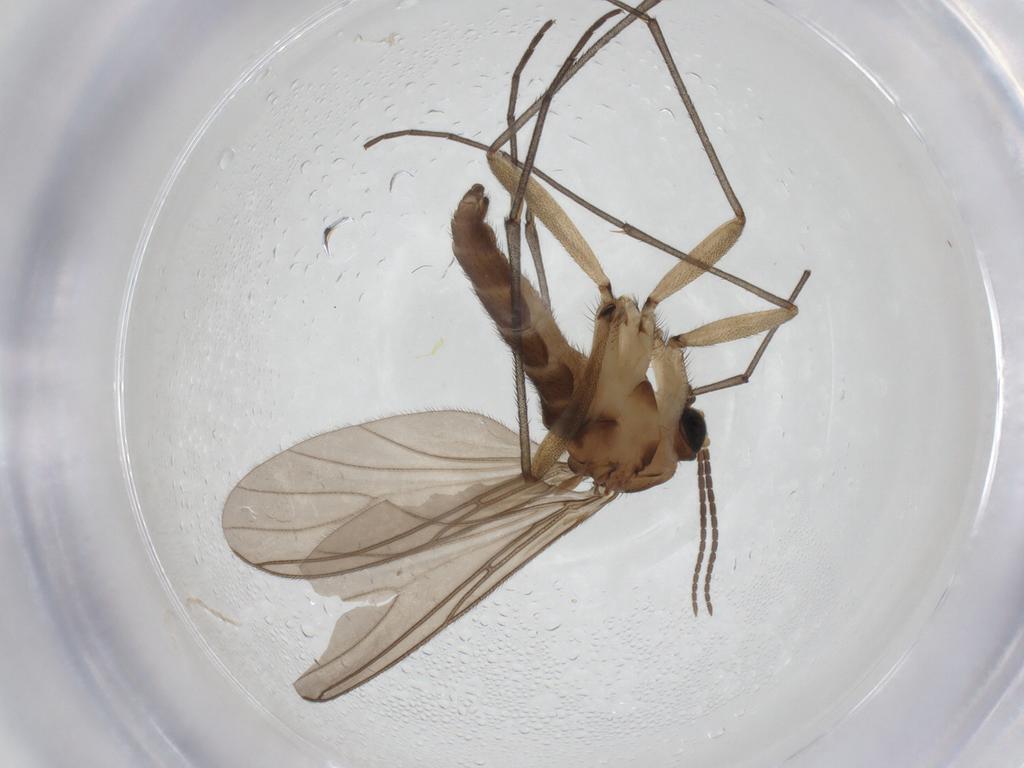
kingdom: Animalia
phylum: Arthropoda
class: Insecta
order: Diptera
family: Sciaridae
